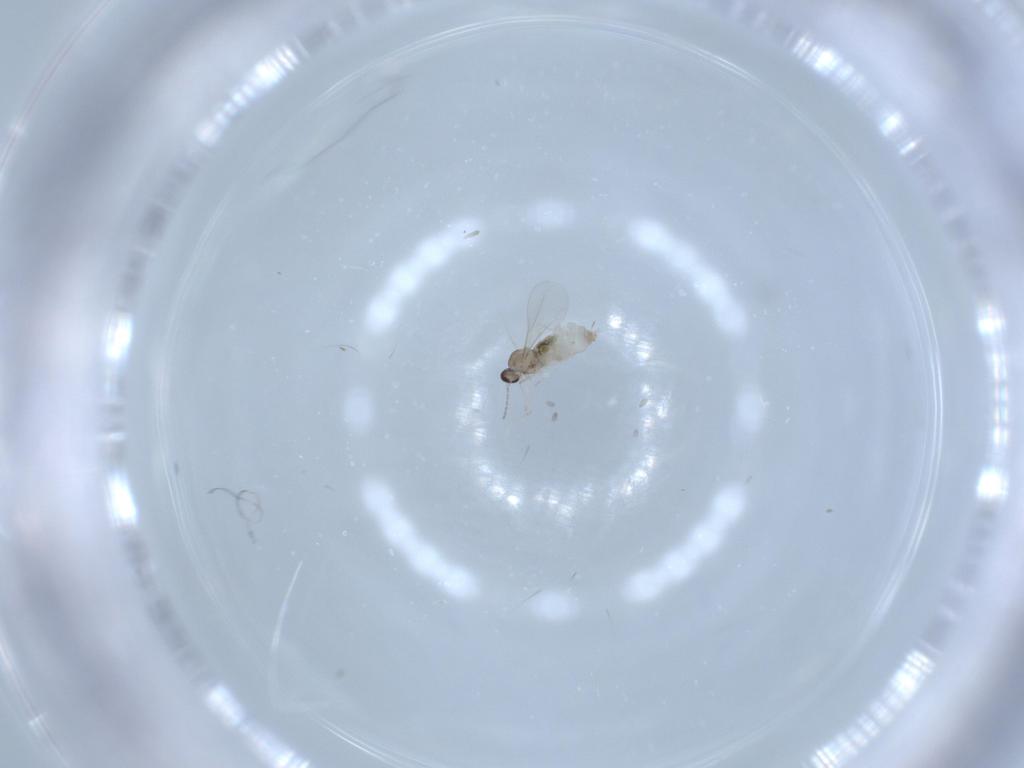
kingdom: Animalia
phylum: Arthropoda
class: Insecta
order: Diptera
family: Cecidomyiidae
